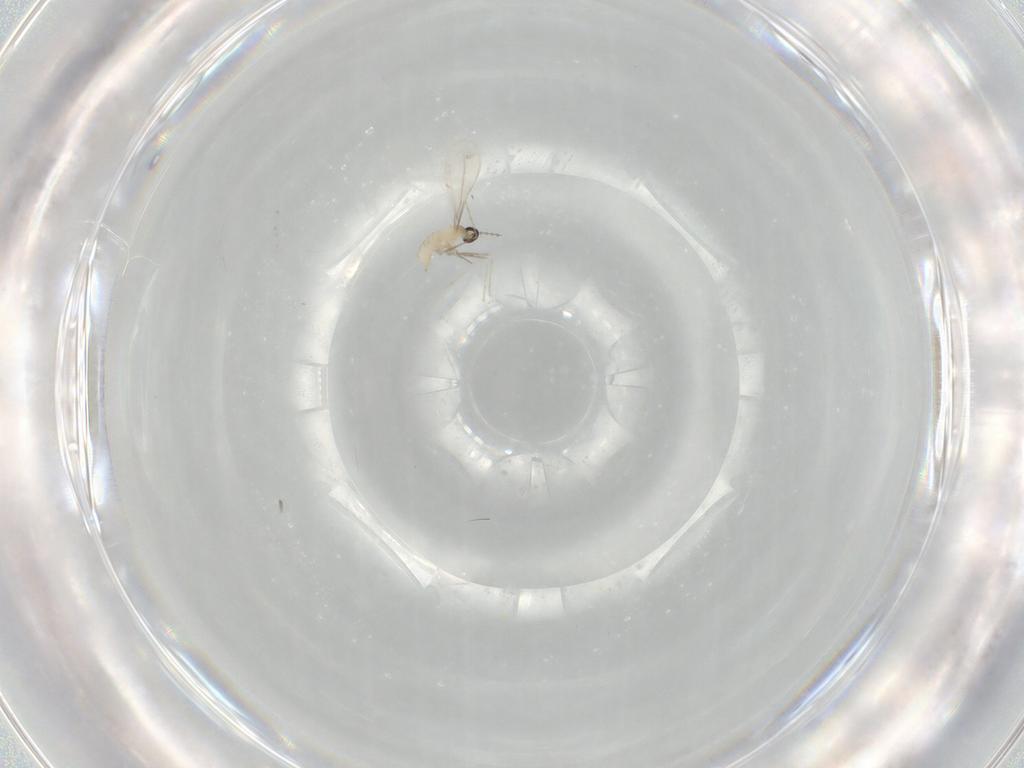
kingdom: Animalia
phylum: Arthropoda
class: Insecta
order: Diptera
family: Cecidomyiidae
